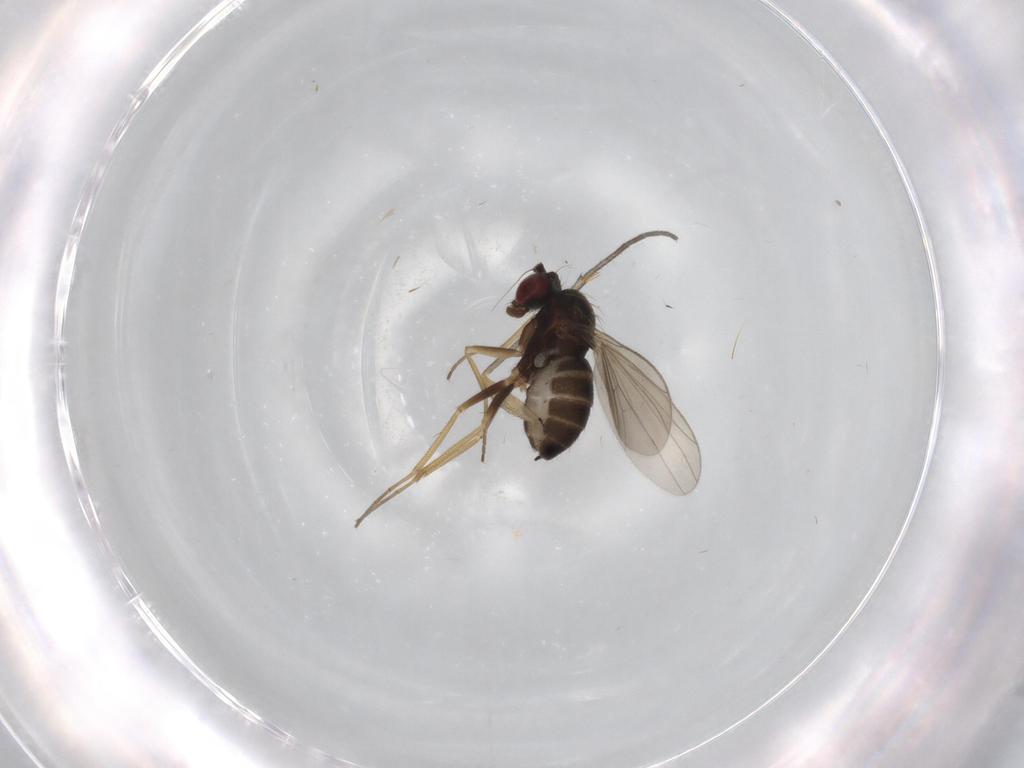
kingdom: Animalia
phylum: Arthropoda
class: Insecta
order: Diptera
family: Dolichopodidae
